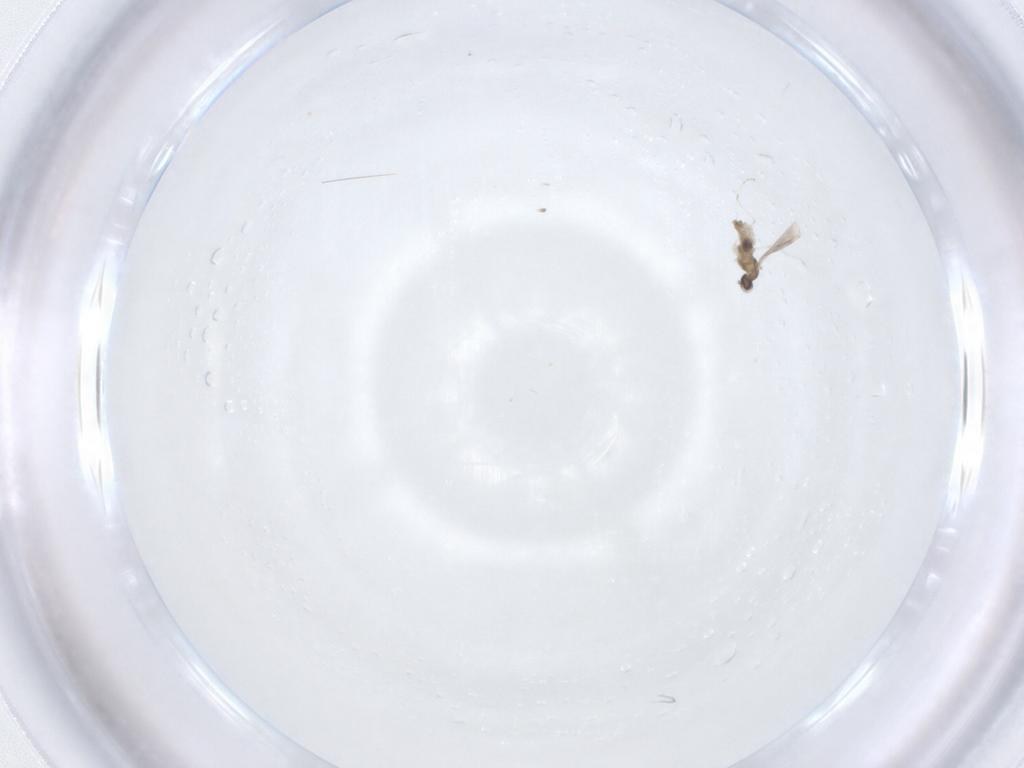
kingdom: Animalia
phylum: Arthropoda
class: Insecta
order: Diptera
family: Cecidomyiidae
